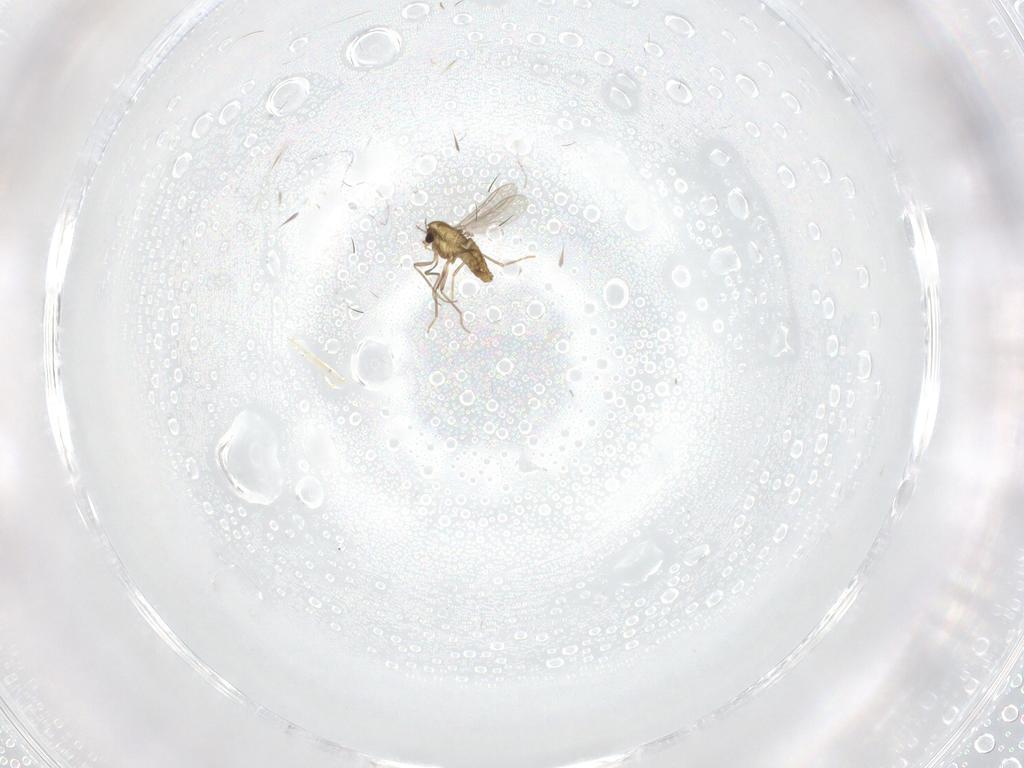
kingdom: Animalia
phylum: Arthropoda
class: Insecta
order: Diptera
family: Chironomidae
